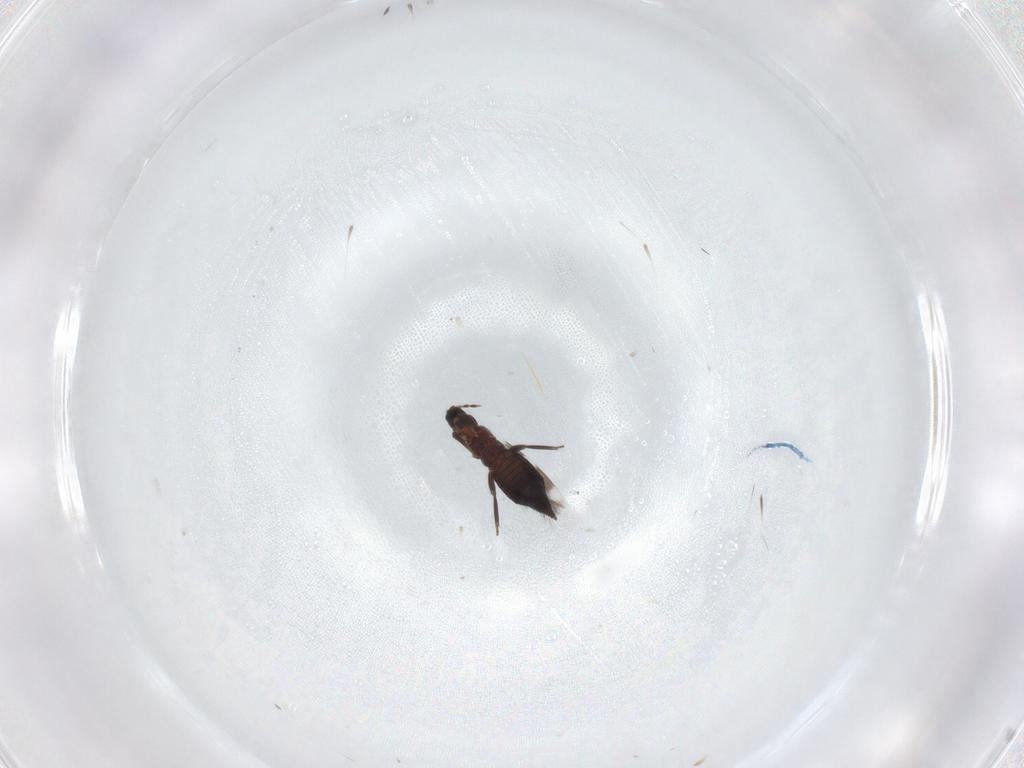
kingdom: Animalia
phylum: Arthropoda
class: Insecta
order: Thysanoptera
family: Aeolothripidae
